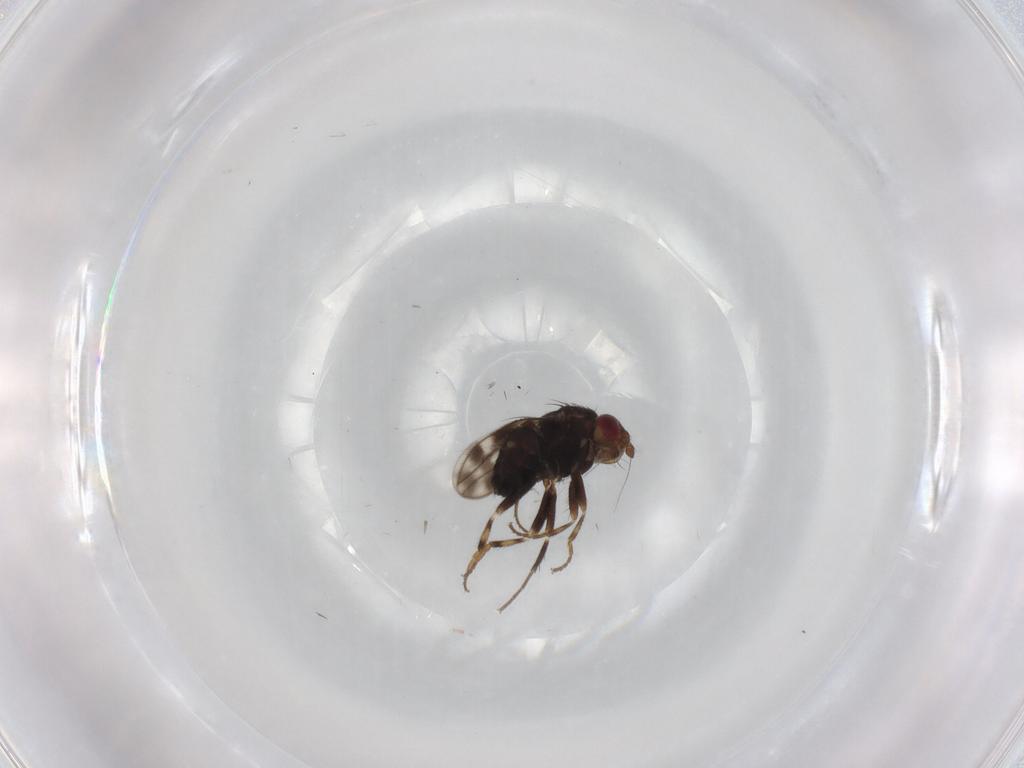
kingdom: Animalia
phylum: Arthropoda
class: Insecta
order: Diptera
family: Sphaeroceridae
